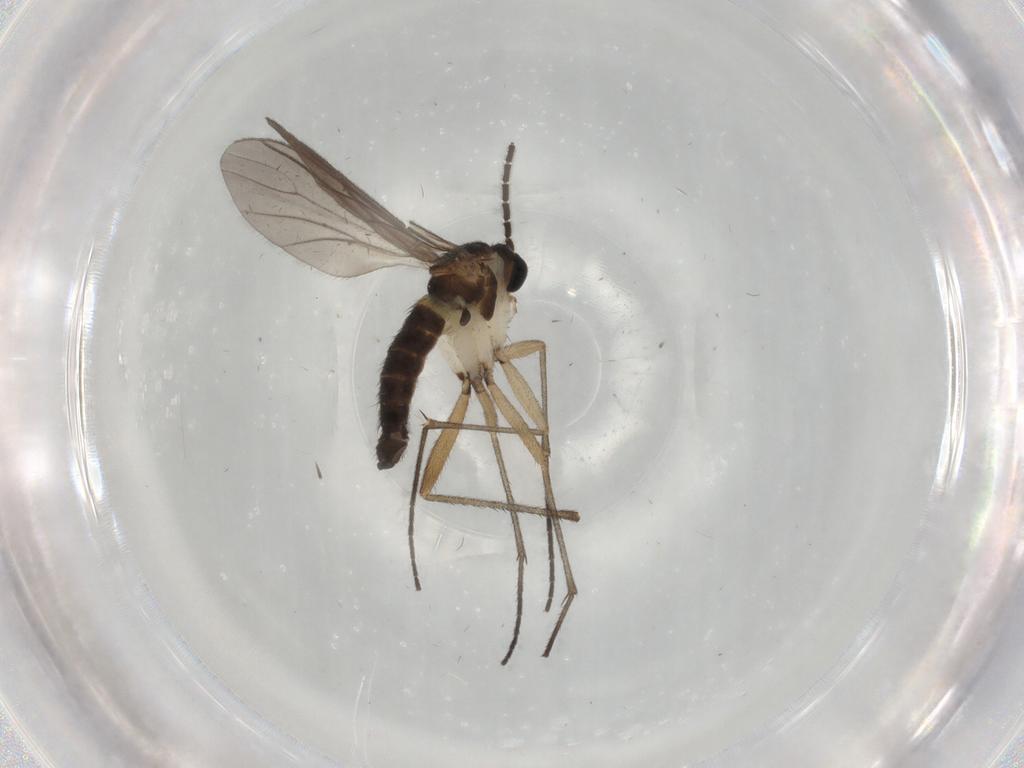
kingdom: Animalia
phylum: Arthropoda
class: Insecta
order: Diptera
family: Sciaridae
